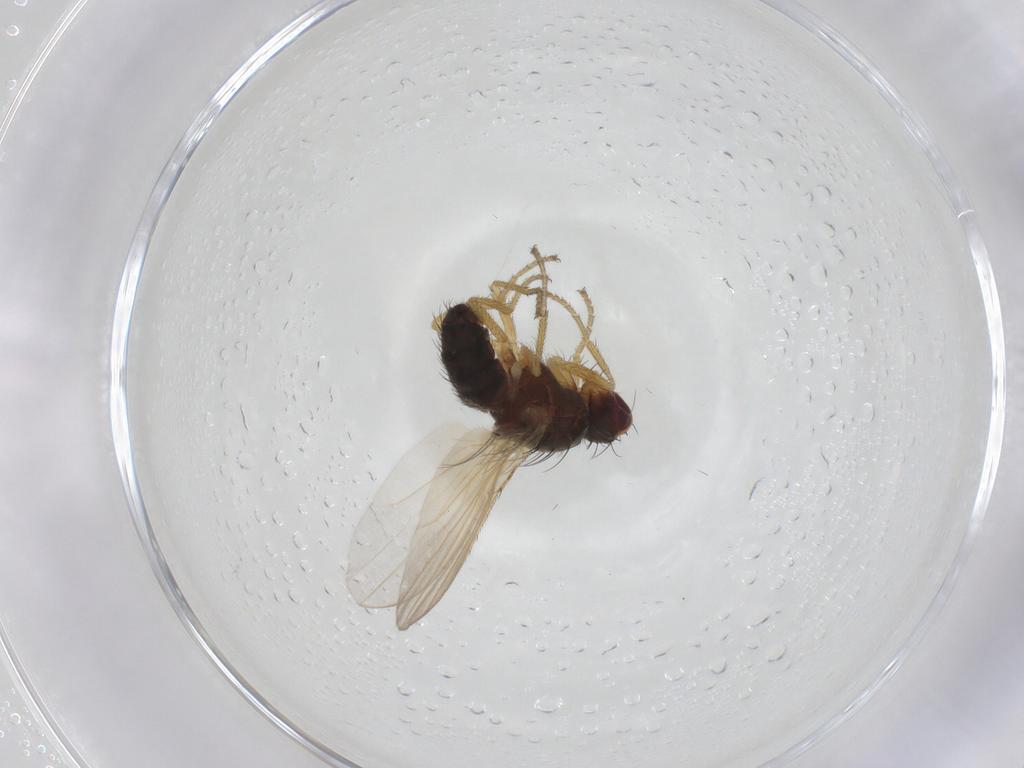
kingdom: Animalia
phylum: Arthropoda
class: Insecta
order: Diptera
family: Heleomyzidae
